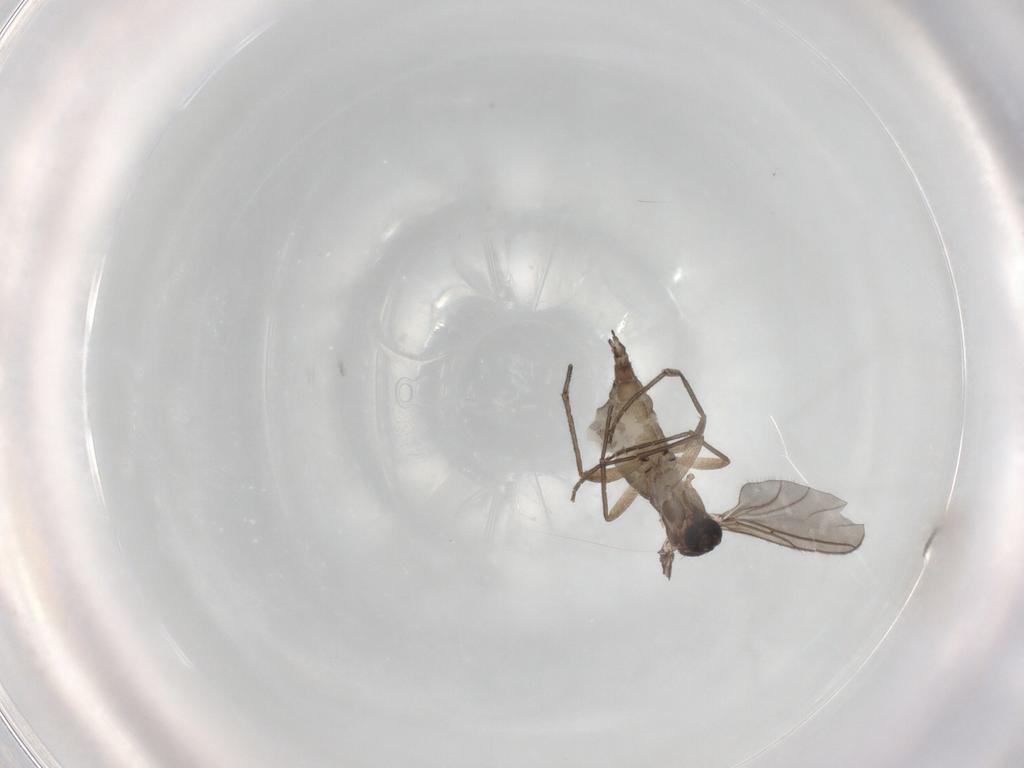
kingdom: Animalia
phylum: Arthropoda
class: Insecta
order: Diptera
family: Sciaridae
